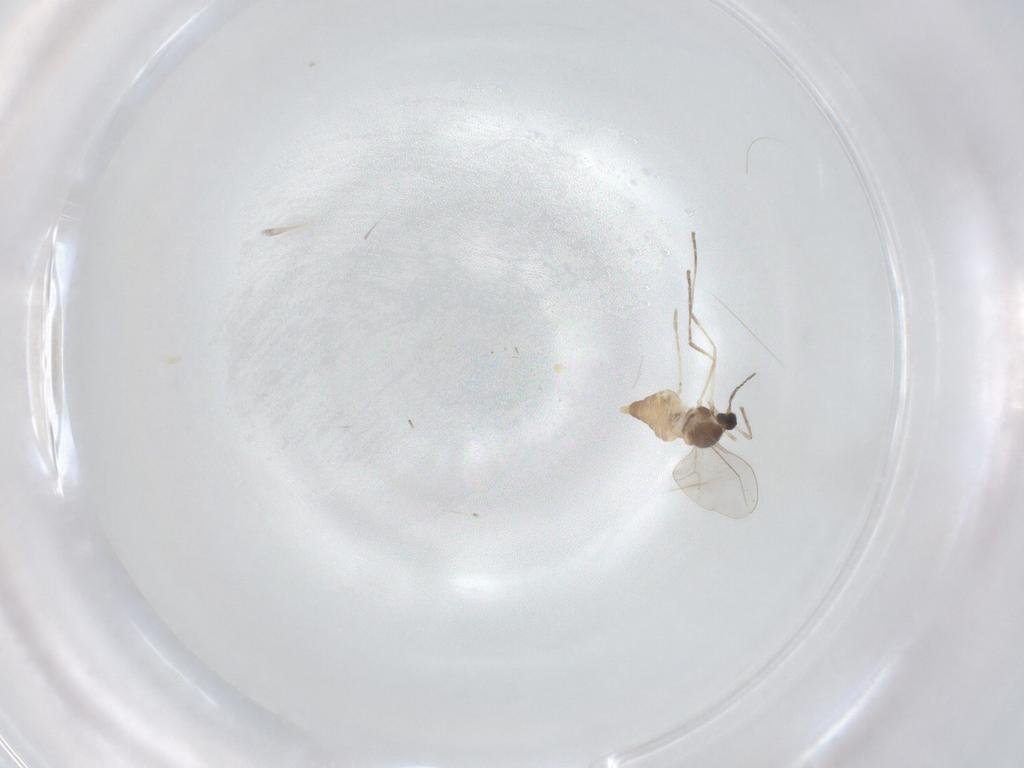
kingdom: Animalia
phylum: Arthropoda
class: Insecta
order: Diptera
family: Cecidomyiidae
